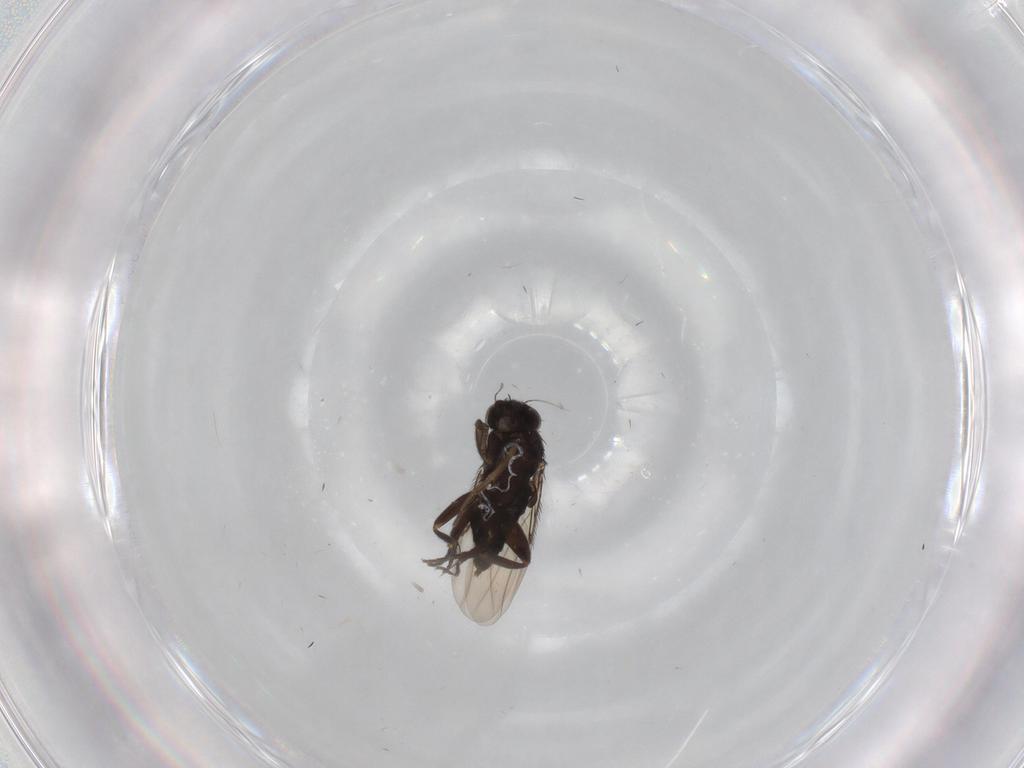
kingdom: Animalia
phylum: Arthropoda
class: Insecta
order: Diptera
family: Phoridae
